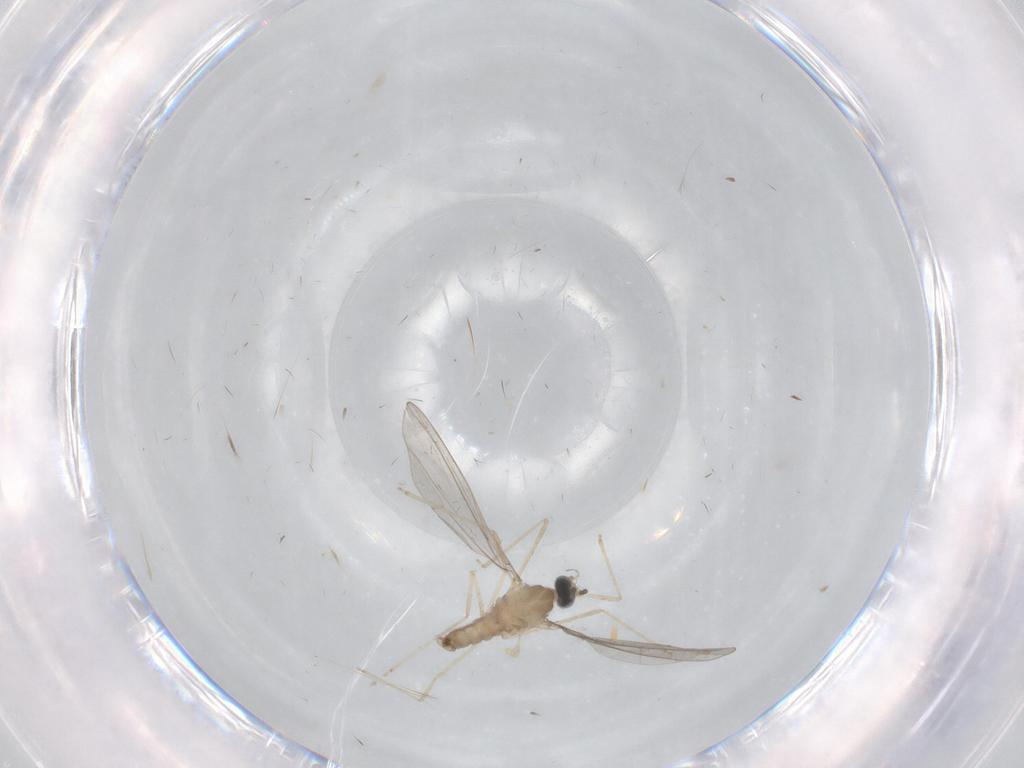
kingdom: Animalia
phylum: Arthropoda
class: Insecta
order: Diptera
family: Cecidomyiidae
